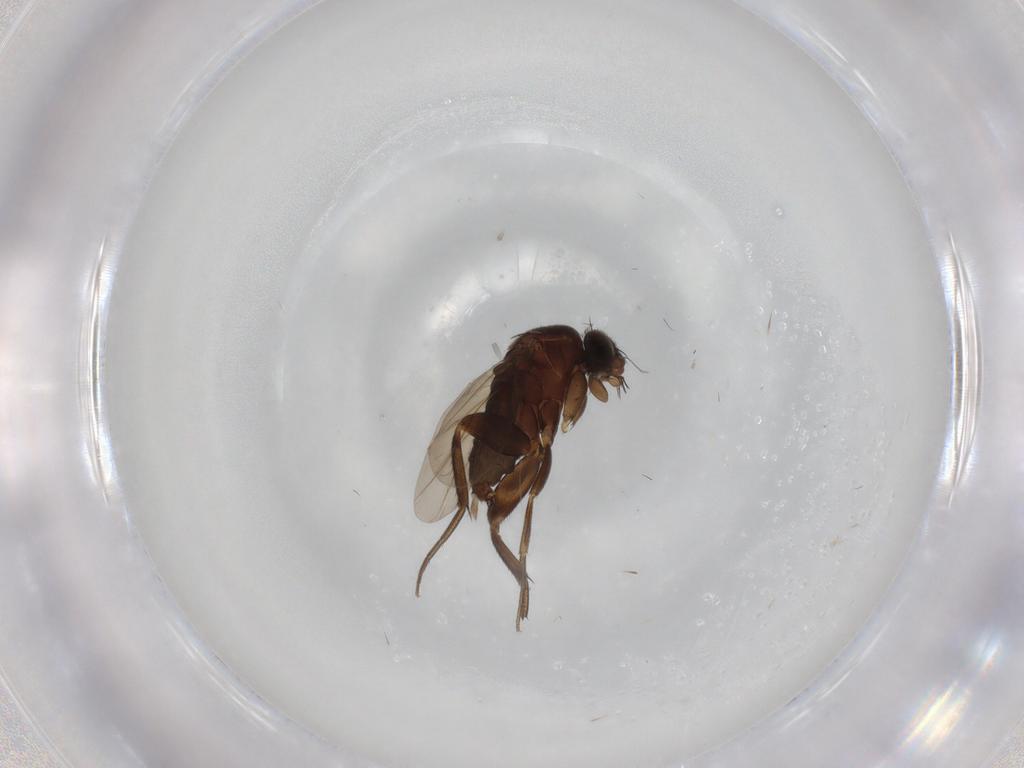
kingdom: Animalia
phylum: Arthropoda
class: Insecta
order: Diptera
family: Phoridae
